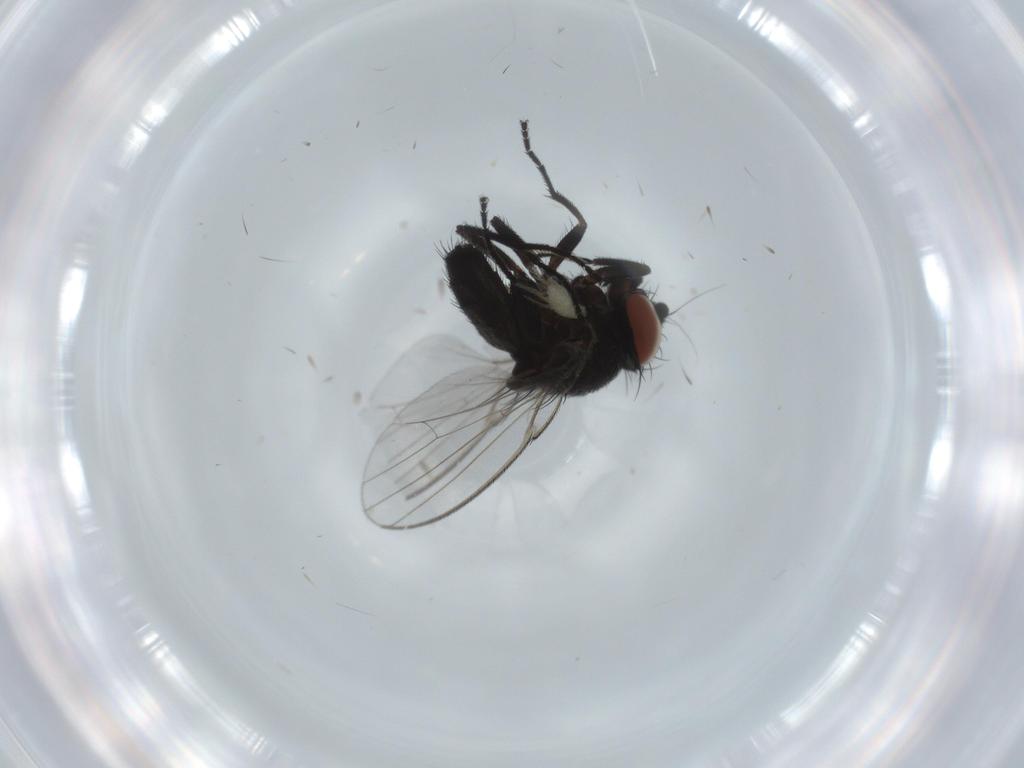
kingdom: Animalia
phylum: Arthropoda
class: Insecta
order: Diptera
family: Milichiidae
